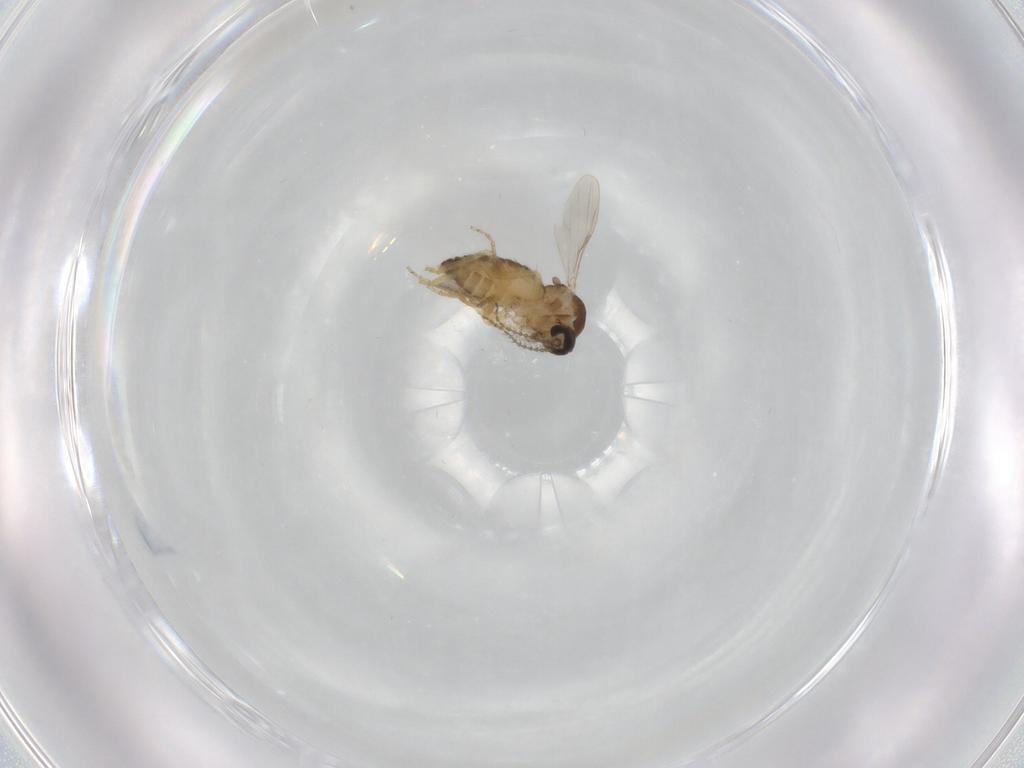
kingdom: Animalia
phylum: Arthropoda
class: Insecta
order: Diptera
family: Ceratopogonidae
